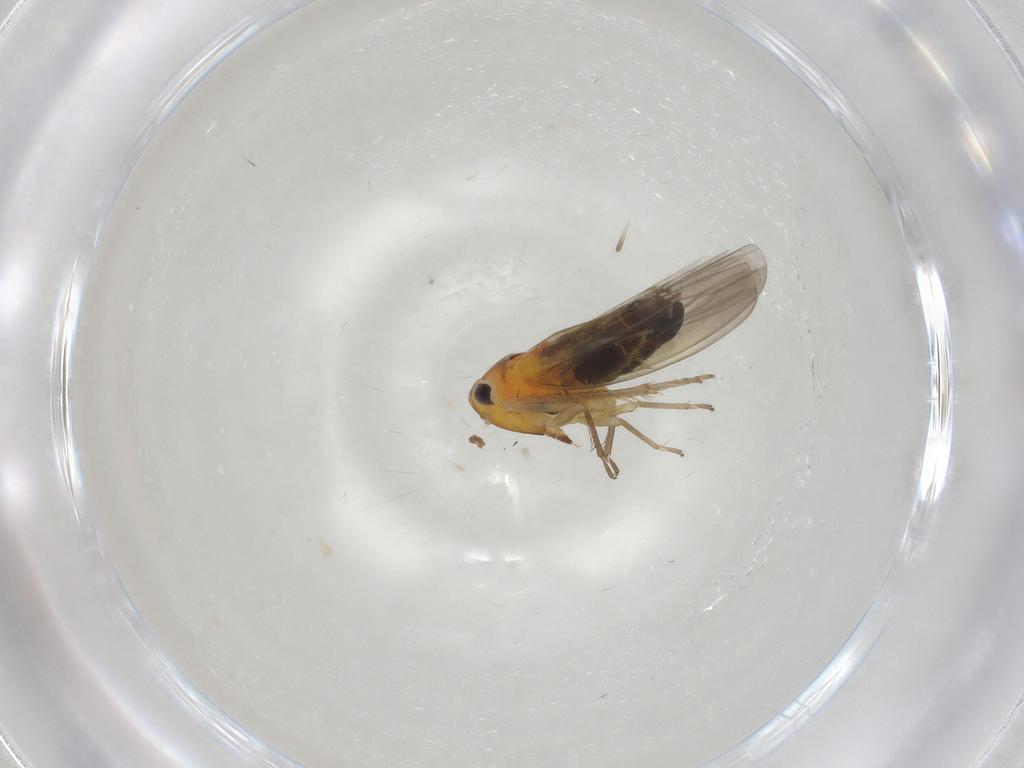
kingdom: Animalia
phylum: Arthropoda
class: Insecta
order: Hemiptera
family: Cicadellidae
